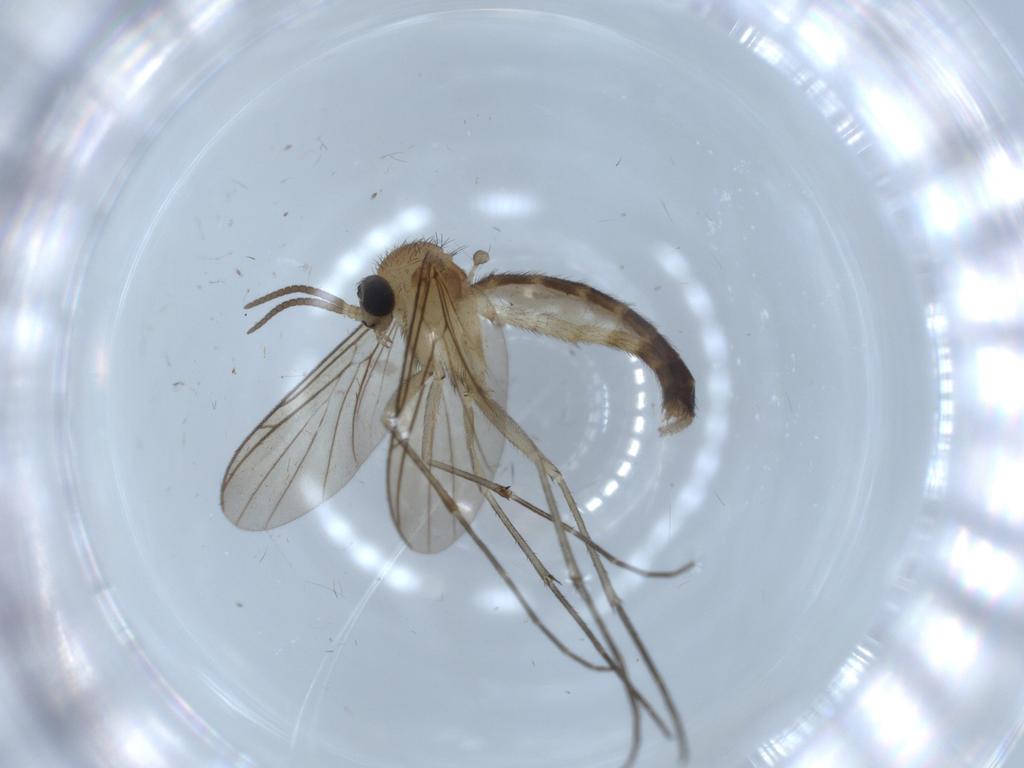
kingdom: Animalia
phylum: Arthropoda
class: Insecta
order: Diptera
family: Keroplatidae
